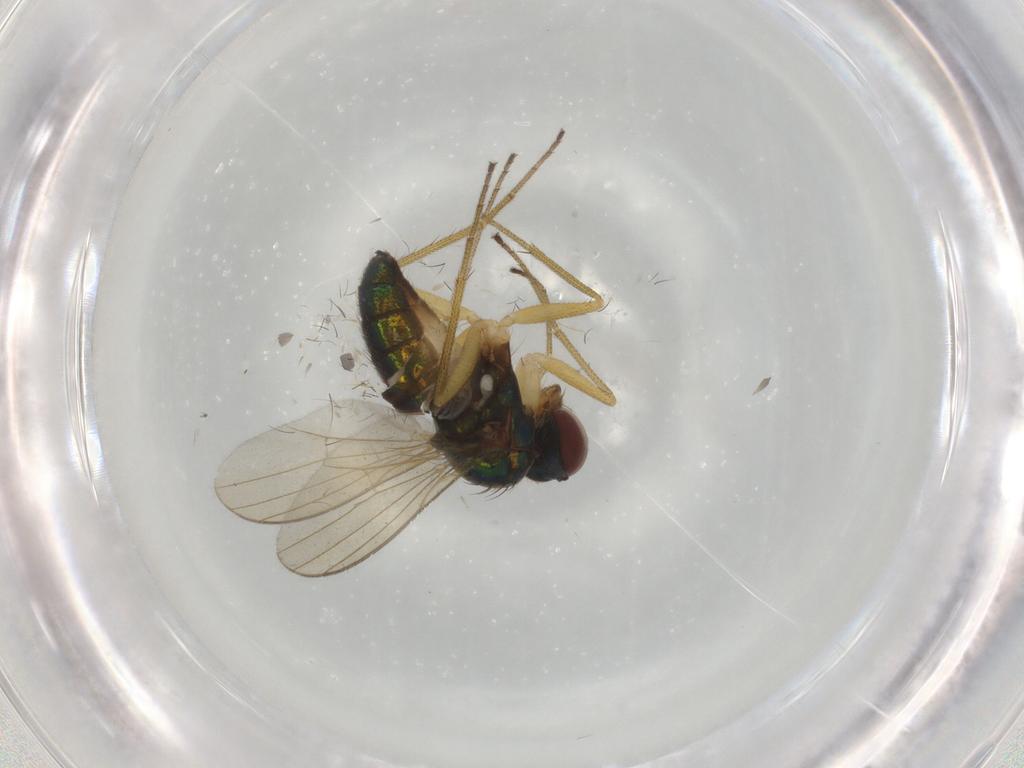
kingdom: Animalia
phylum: Arthropoda
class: Insecta
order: Diptera
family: Dolichopodidae
